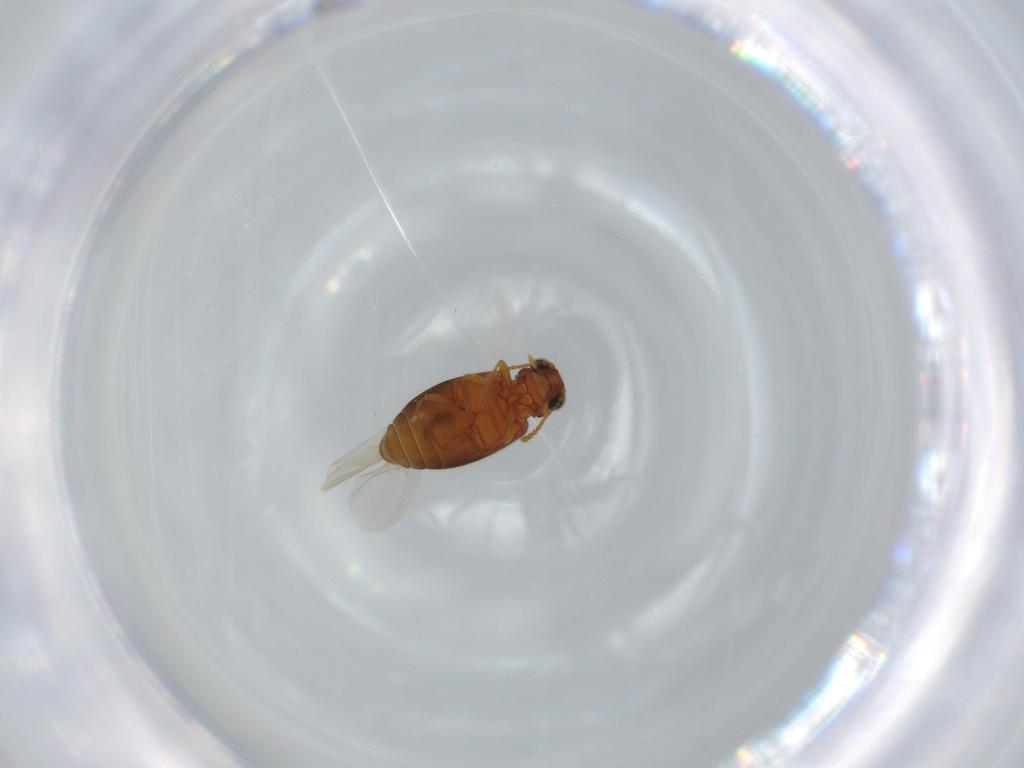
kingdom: Animalia
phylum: Arthropoda
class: Insecta
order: Coleoptera
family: Aderidae
